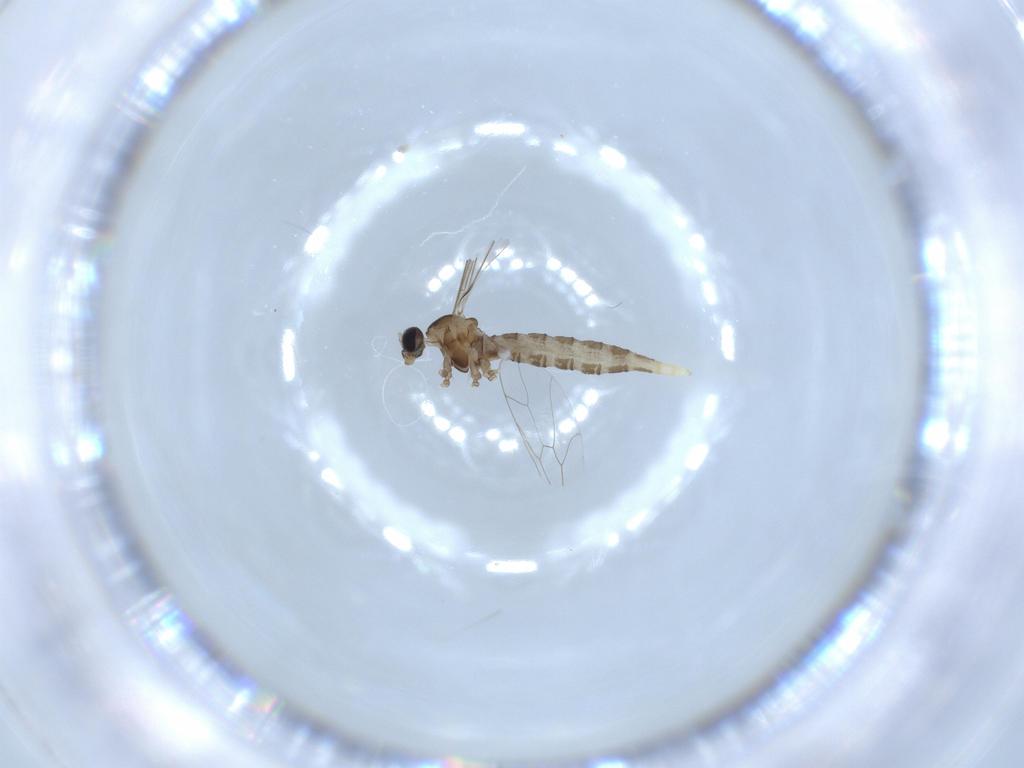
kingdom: Animalia
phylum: Arthropoda
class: Insecta
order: Diptera
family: Cecidomyiidae
